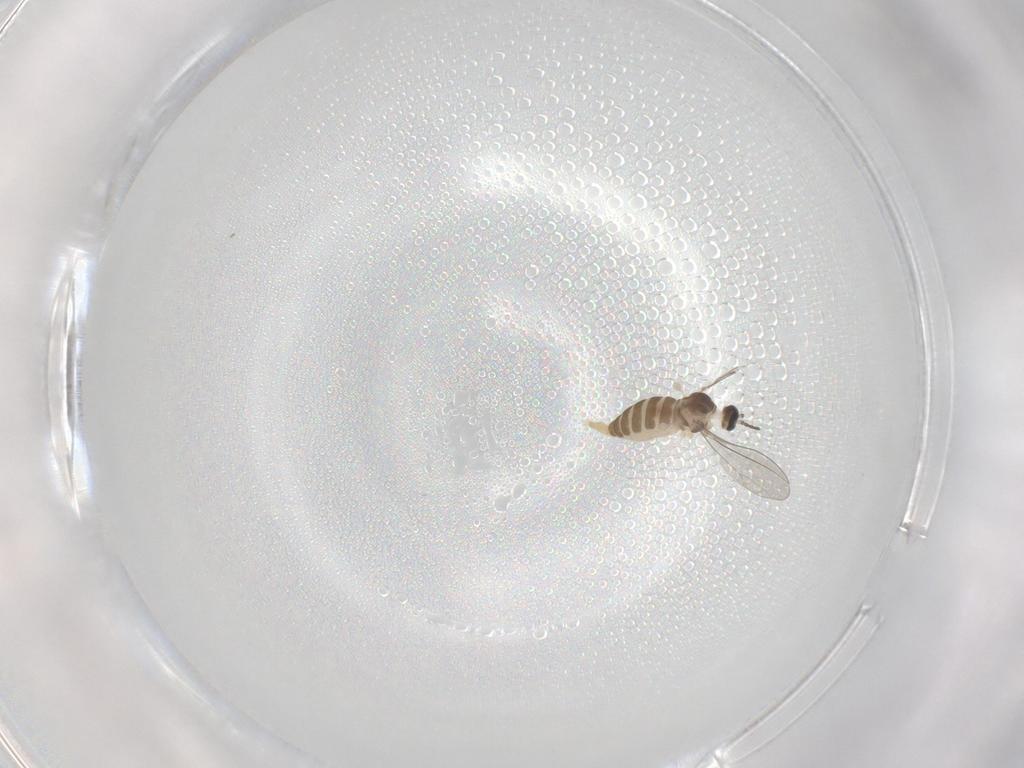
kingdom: Animalia
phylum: Arthropoda
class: Insecta
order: Diptera
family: Cecidomyiidae
